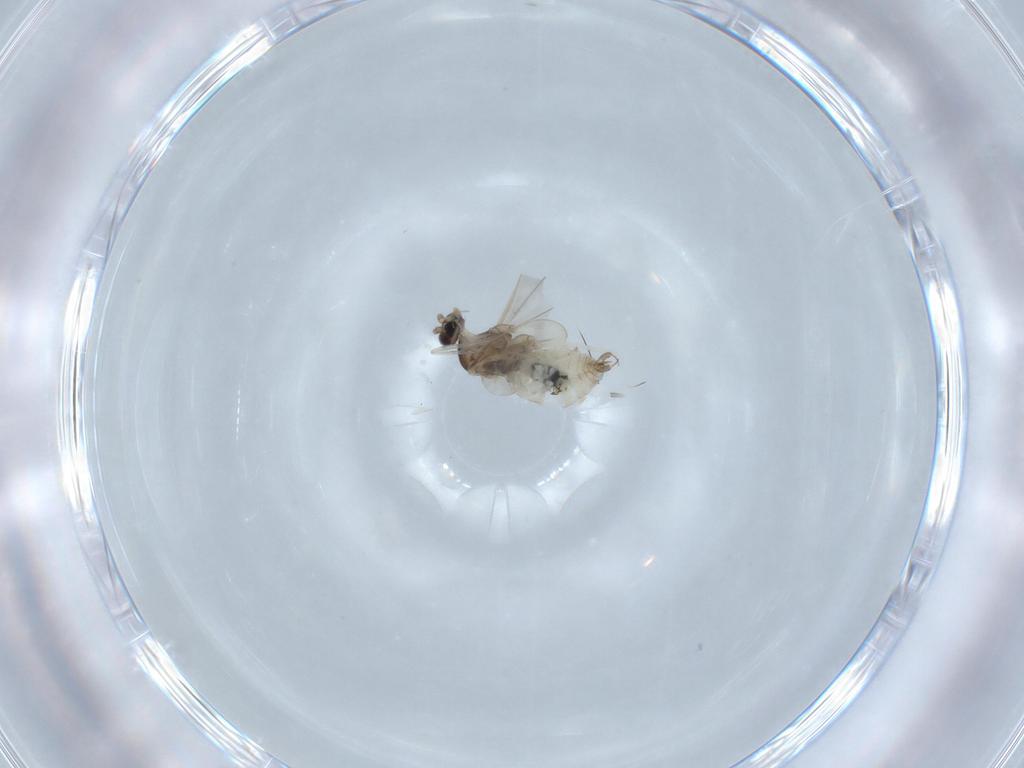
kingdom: Animalia
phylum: Arthropoda
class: Insecta
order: Diptera
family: Cecidomyiidae
